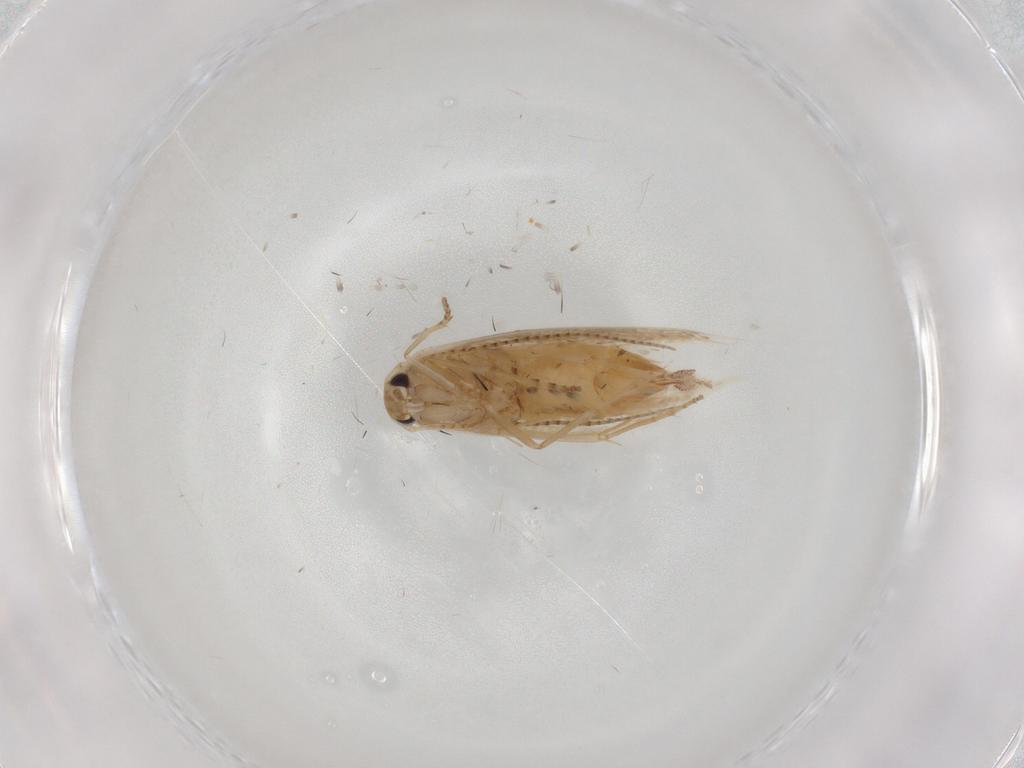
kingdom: Animalia
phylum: Arthropoda
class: Insecta
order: Lepidoptera
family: Bucculatricidae
